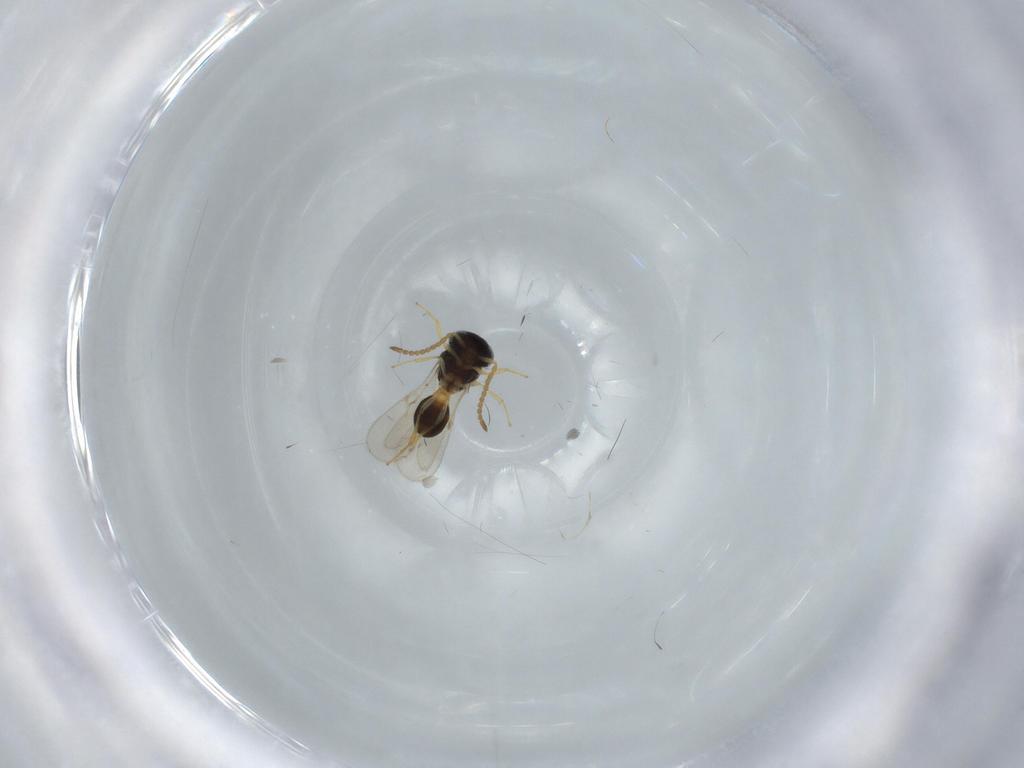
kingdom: Animalia
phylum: Arthropoda
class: Insecta
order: Hymenoptera
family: Scelionidae
